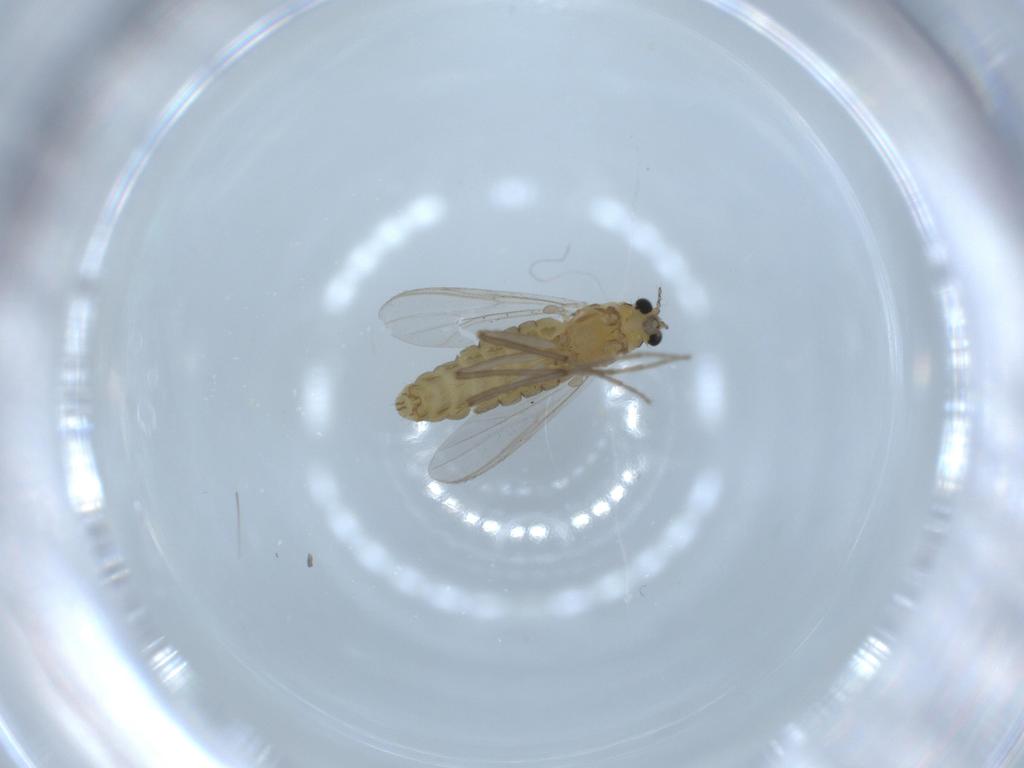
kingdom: Animalia
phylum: Arthropoda
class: Insecta
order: Diptera
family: Chironomidae
